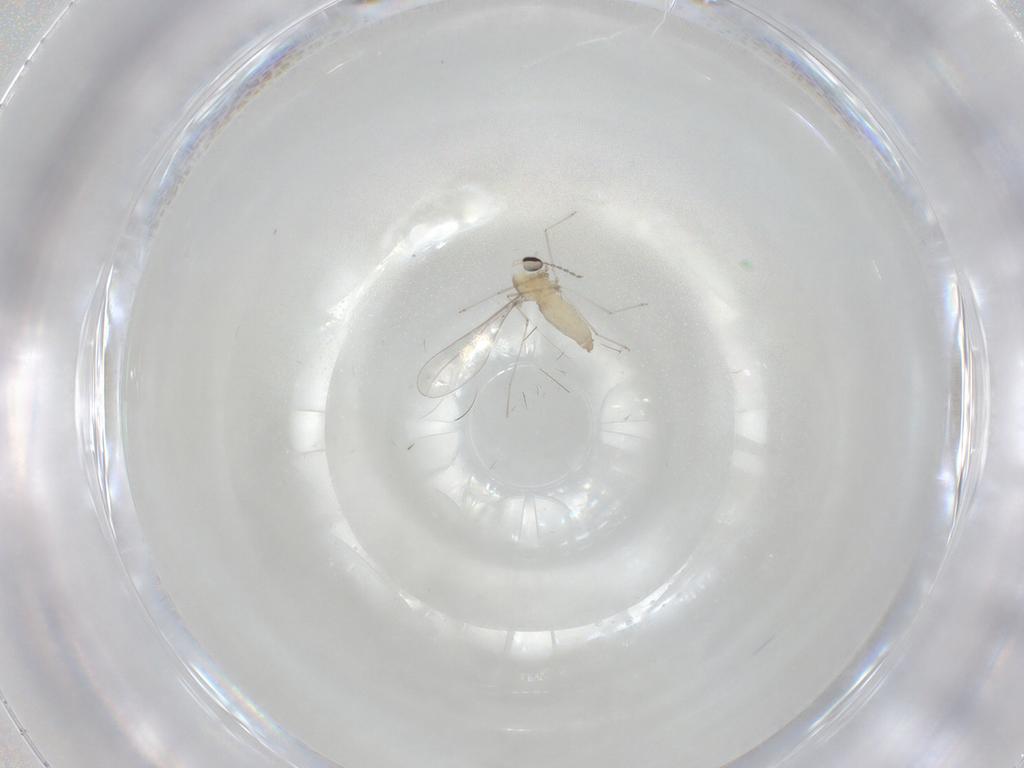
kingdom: Animalia
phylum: Arthropoda
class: Insecta
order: Diptera
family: Cecidomyiidae
